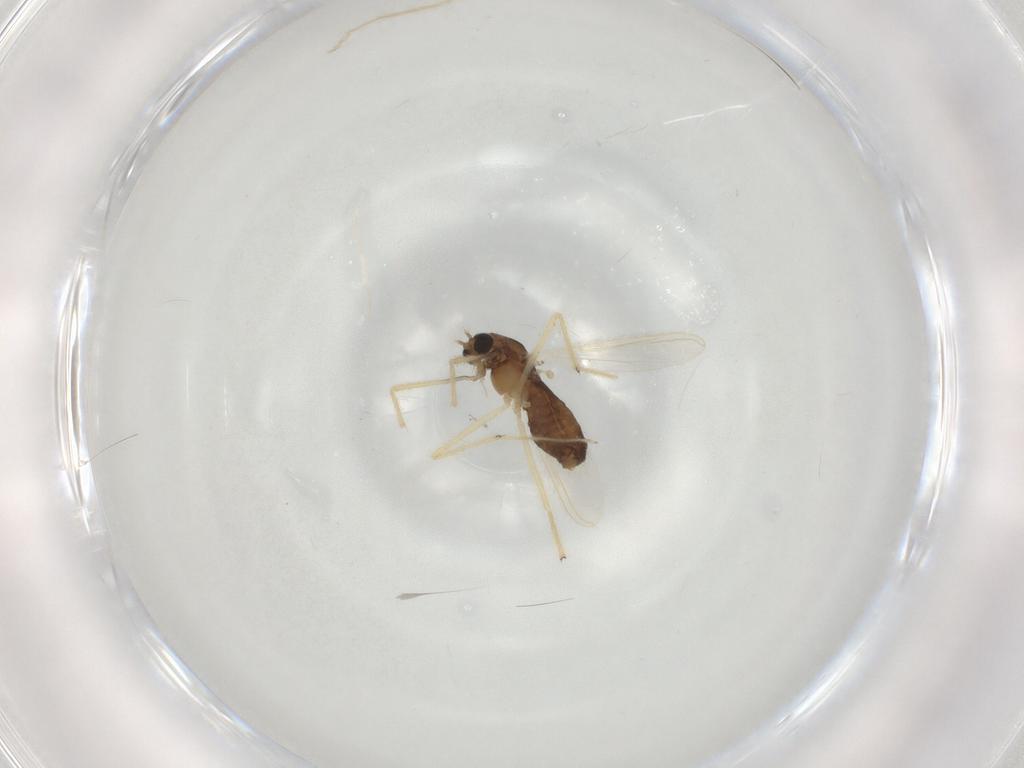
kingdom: Animalia
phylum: Arthropoda
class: Insecta
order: Diptera
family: Chironomidae
